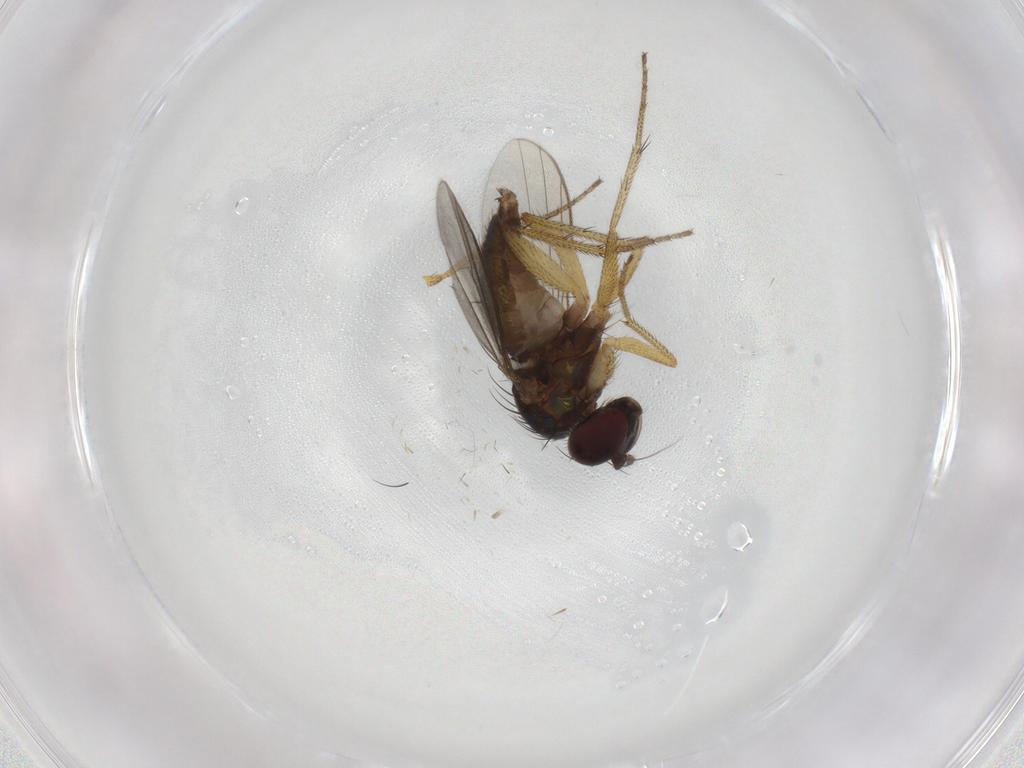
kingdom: Animalia
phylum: Arthropoda
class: Insecta
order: Diptera
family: Dolichopodidae
